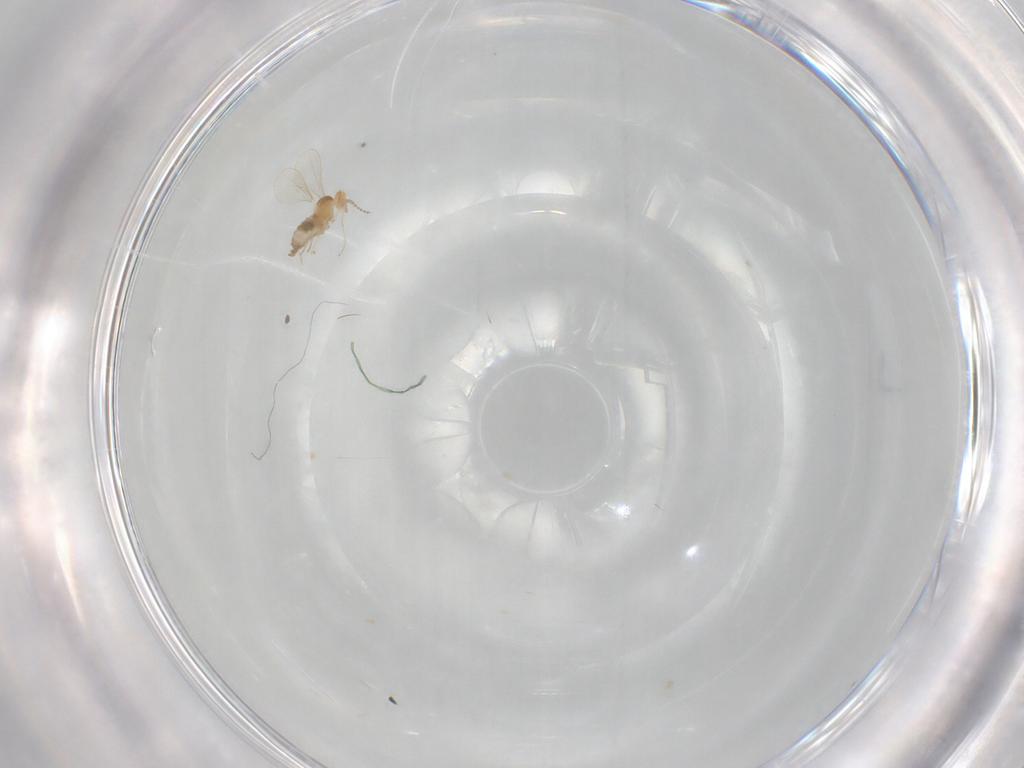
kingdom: Animalia
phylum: Arthropoda
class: Insecta
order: Diptera
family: Cecidomyiidae
